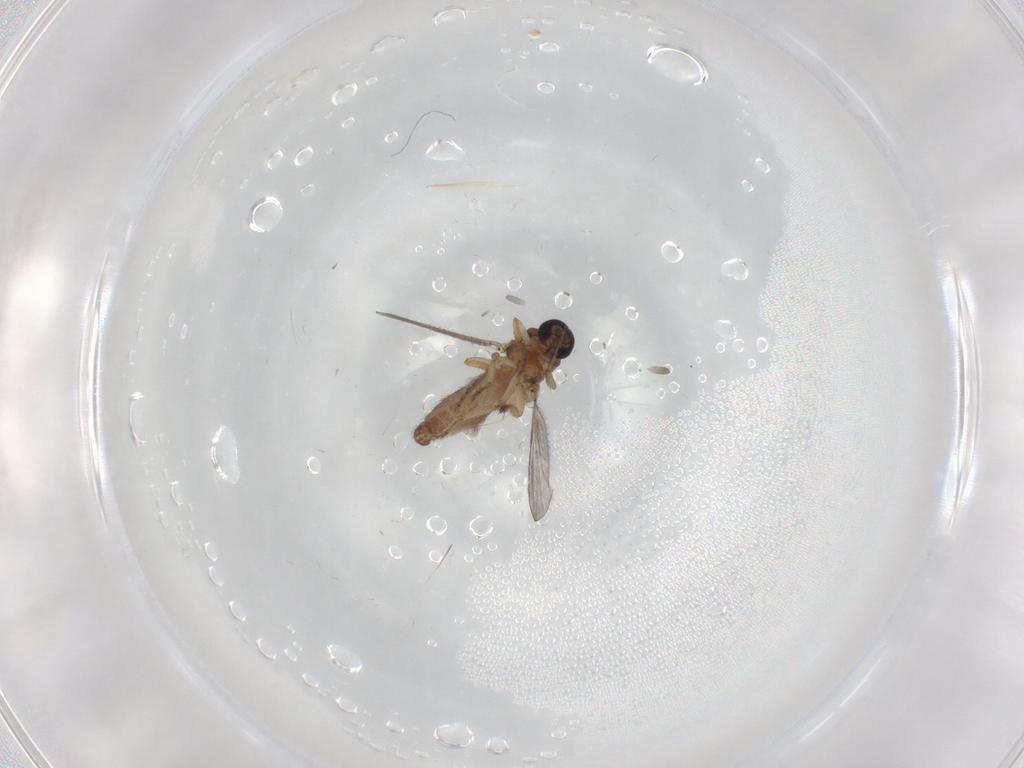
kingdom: Animalia
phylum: Arthropoda
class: Insecta
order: Diptera
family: Ceratopogonidae
